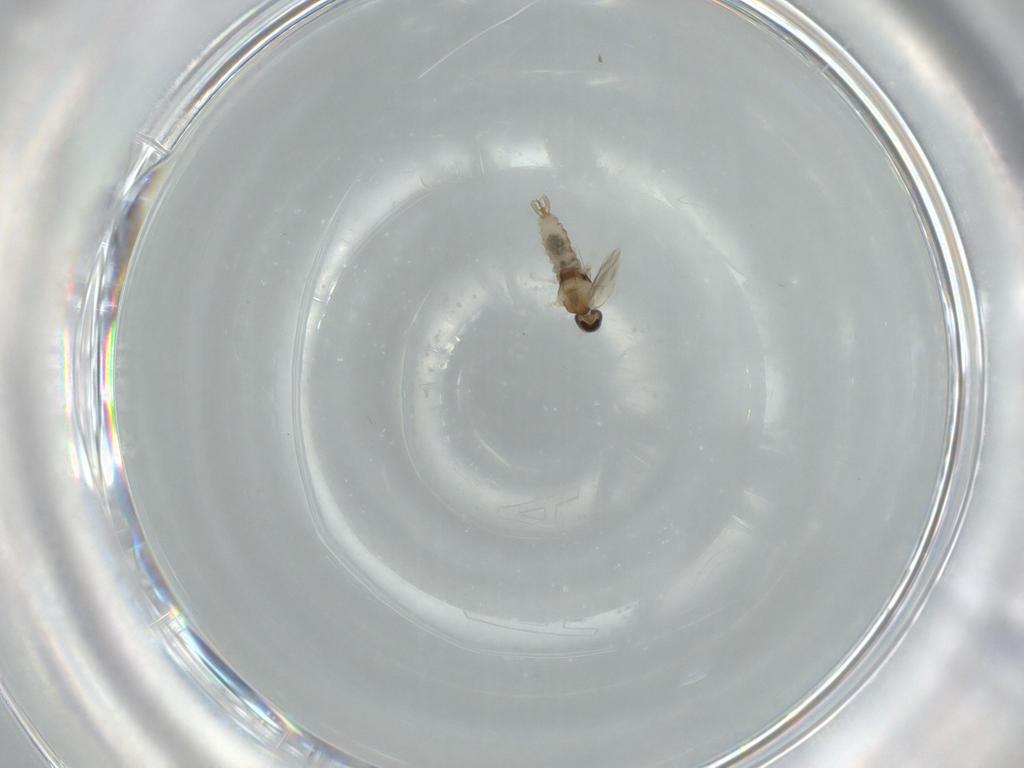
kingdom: Animalia
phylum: Arthropoda
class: Insecta
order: Diptera
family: Cecidomyiidae
